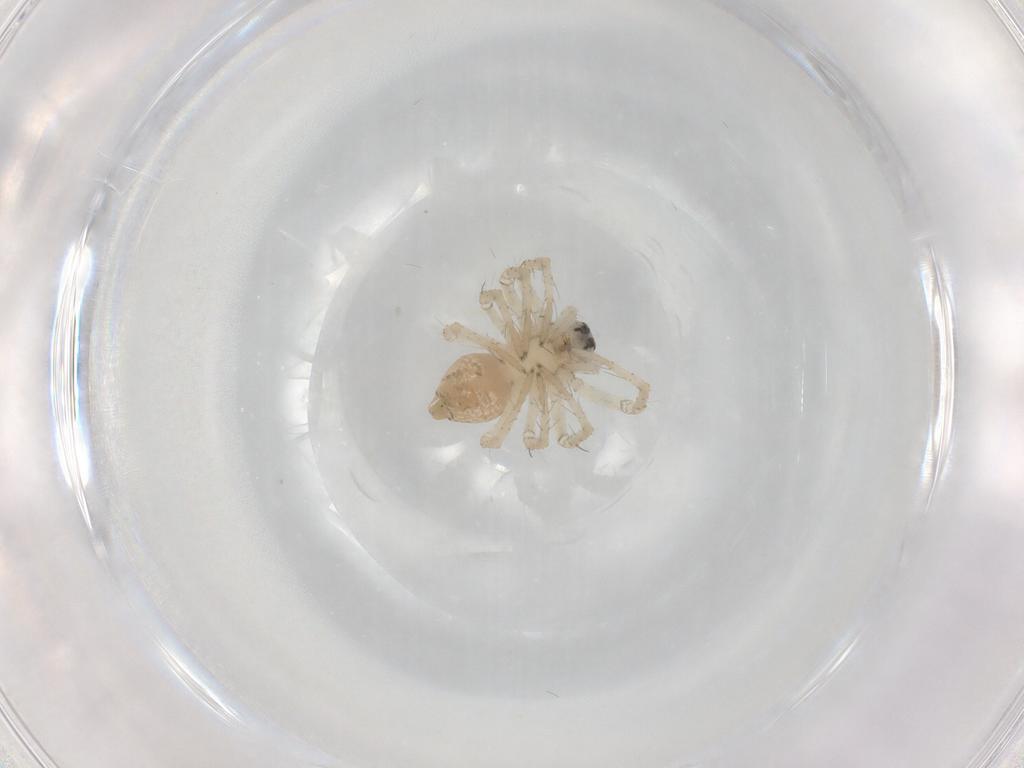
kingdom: Animalia
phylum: Arthropoda
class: Arachnida
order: Araneae
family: Oxyopidae
